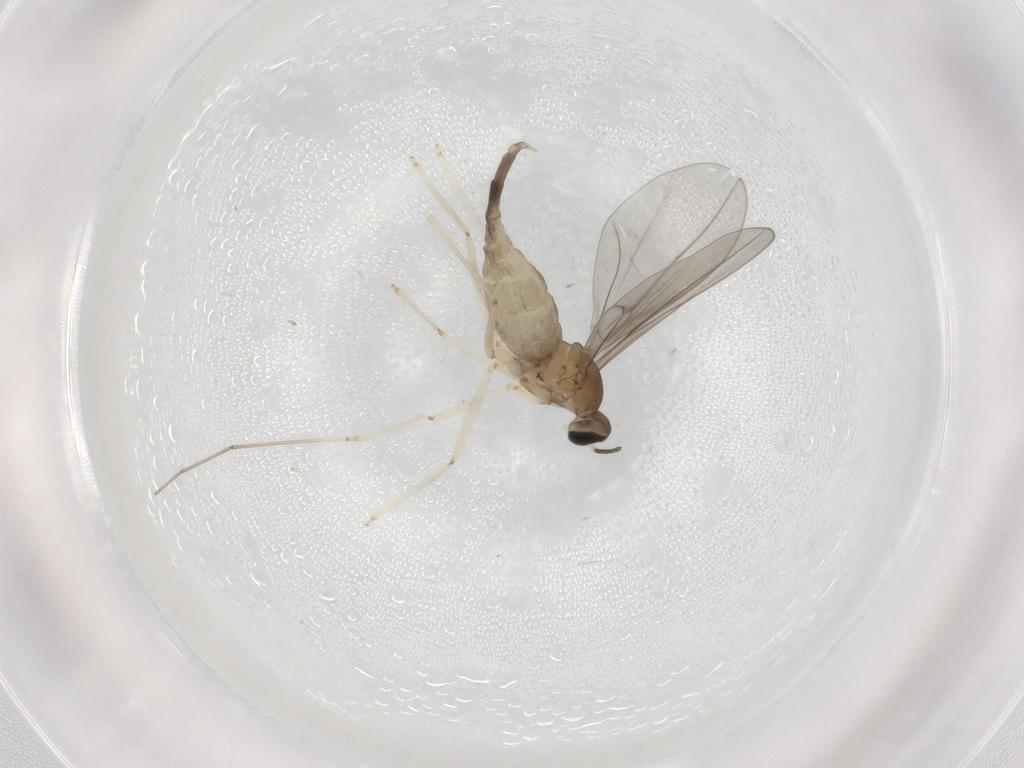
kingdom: Animalia
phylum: Arthropoda
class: Insecta
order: Diptera
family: Cecidomyiidae
